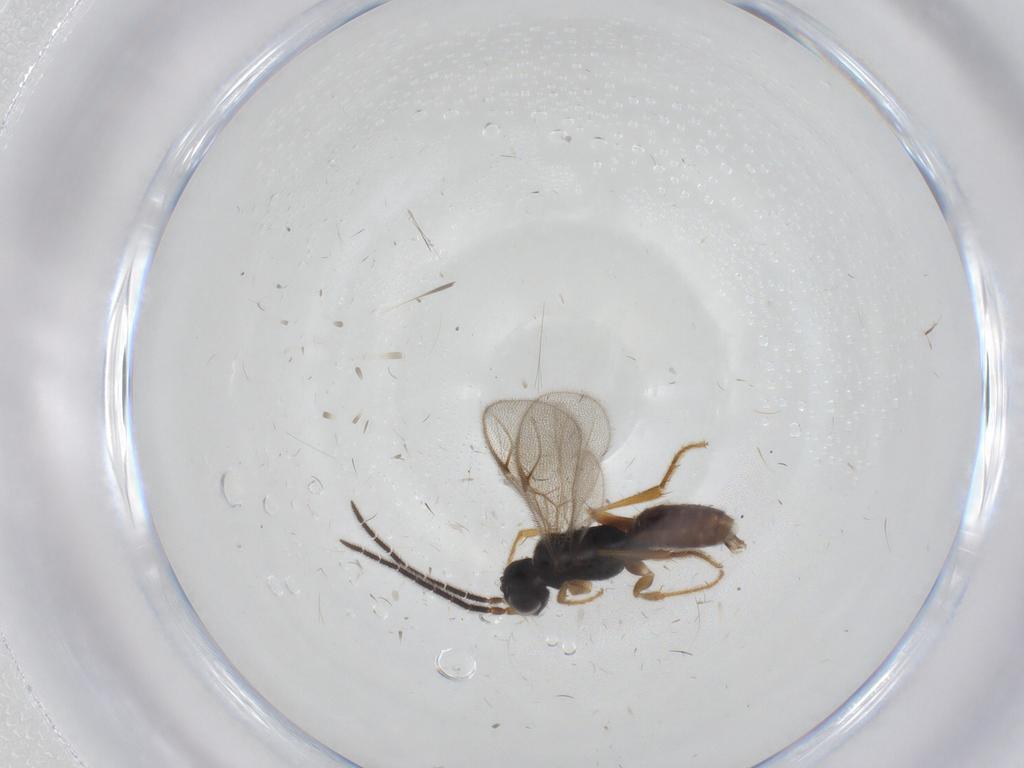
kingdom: Animalia
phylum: Arthropoda
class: Insecta
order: Hymenoptera
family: Dryinidae
